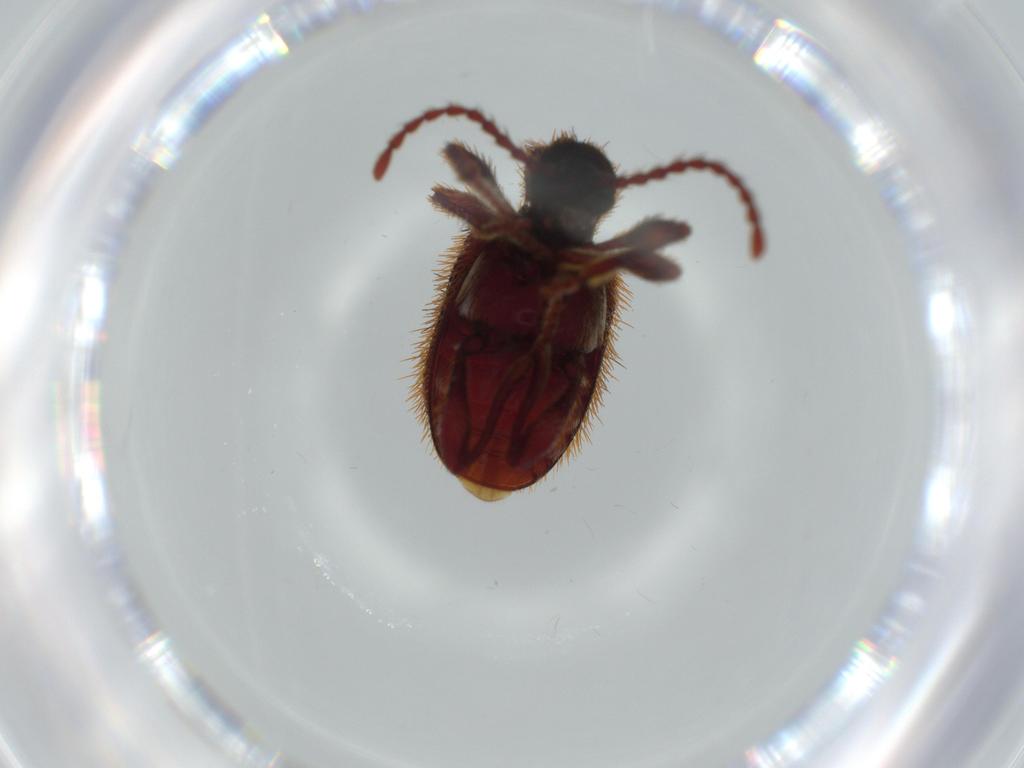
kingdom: Animalia
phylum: Arthropoda
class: Insecta
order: Coleoptera
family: Ptinidae
